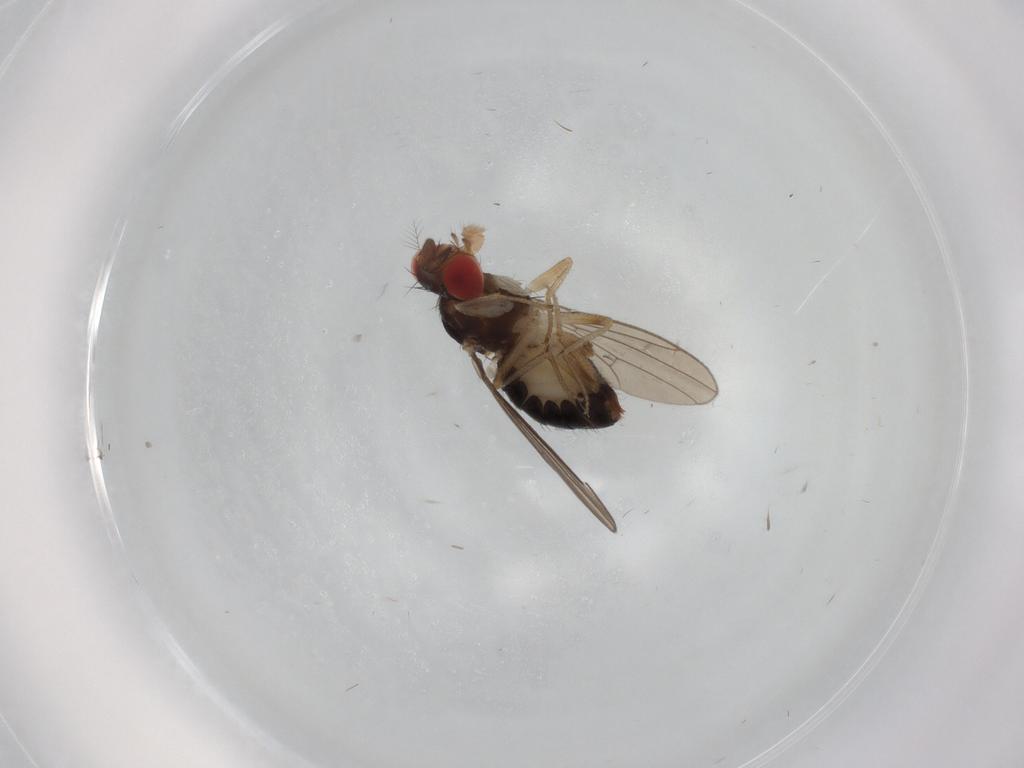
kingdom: Animalia
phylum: Arthropoda
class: Insecta
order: Diptera
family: Drosophilidae
